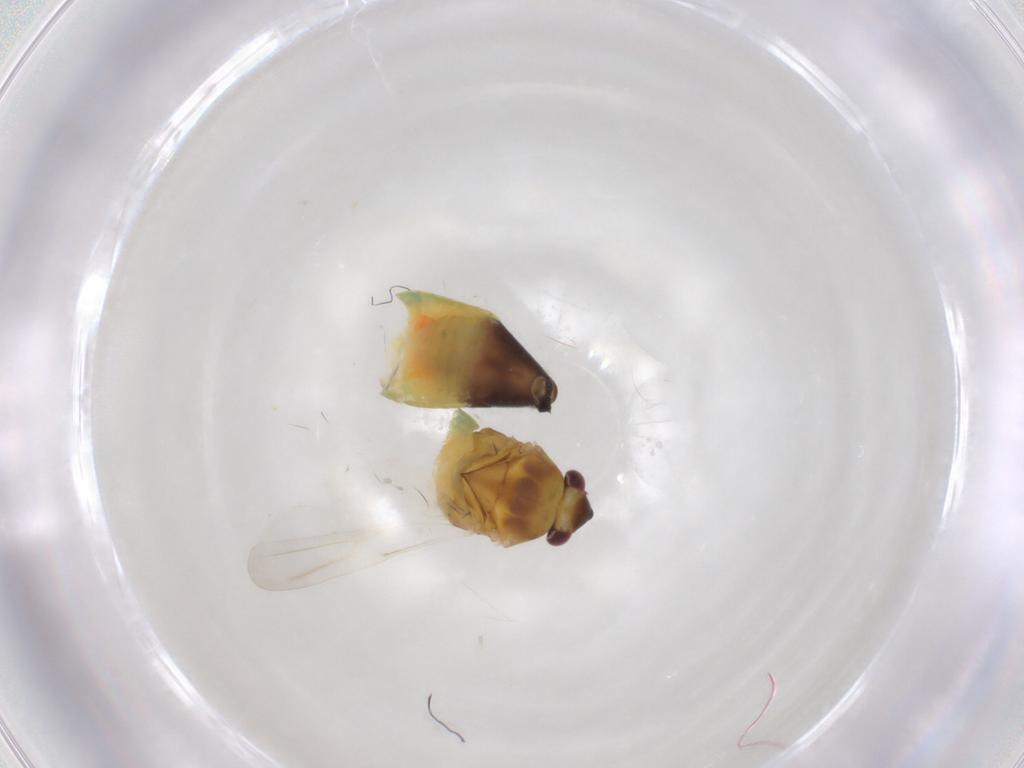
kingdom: Animalia
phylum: Arthropoda
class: Insecta
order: Hemiptera
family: Miridae
